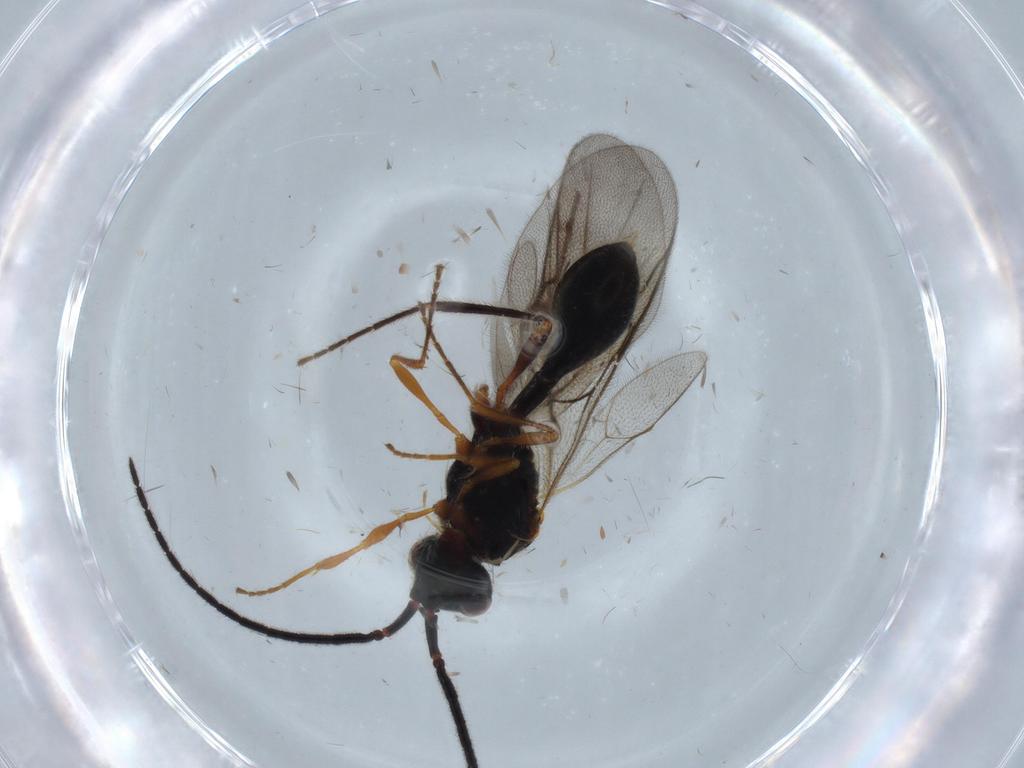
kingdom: Animalia
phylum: Arthropoda
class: Insecta
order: Hymenoptera
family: Diapriidae
